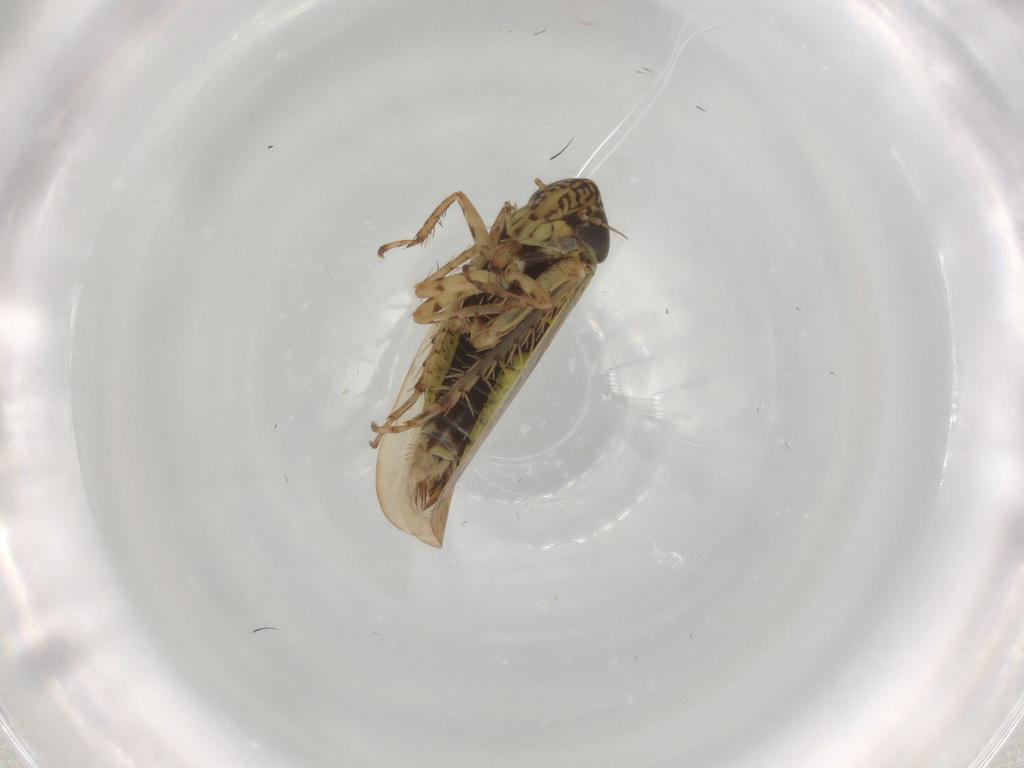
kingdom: Animalia
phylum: Arthropoda
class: Insecta
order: Hemiptera
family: Cicadellidae
